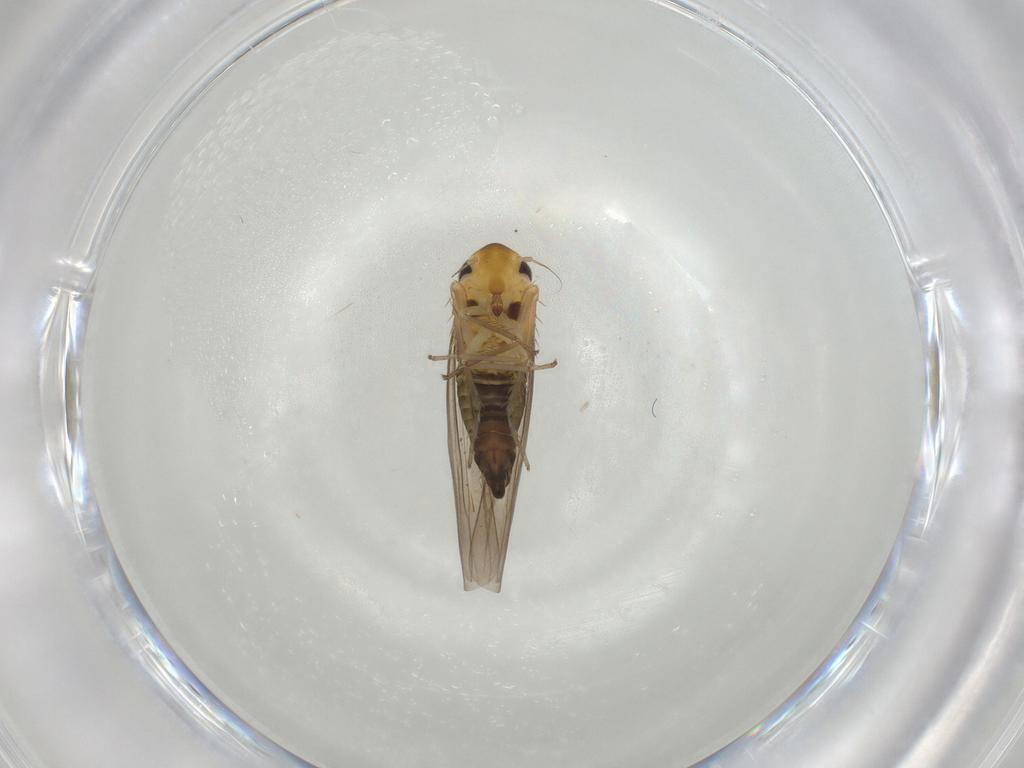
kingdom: Animalia
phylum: Arthropoda
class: Insecta
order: Hemiptera
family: Cicadellidae
